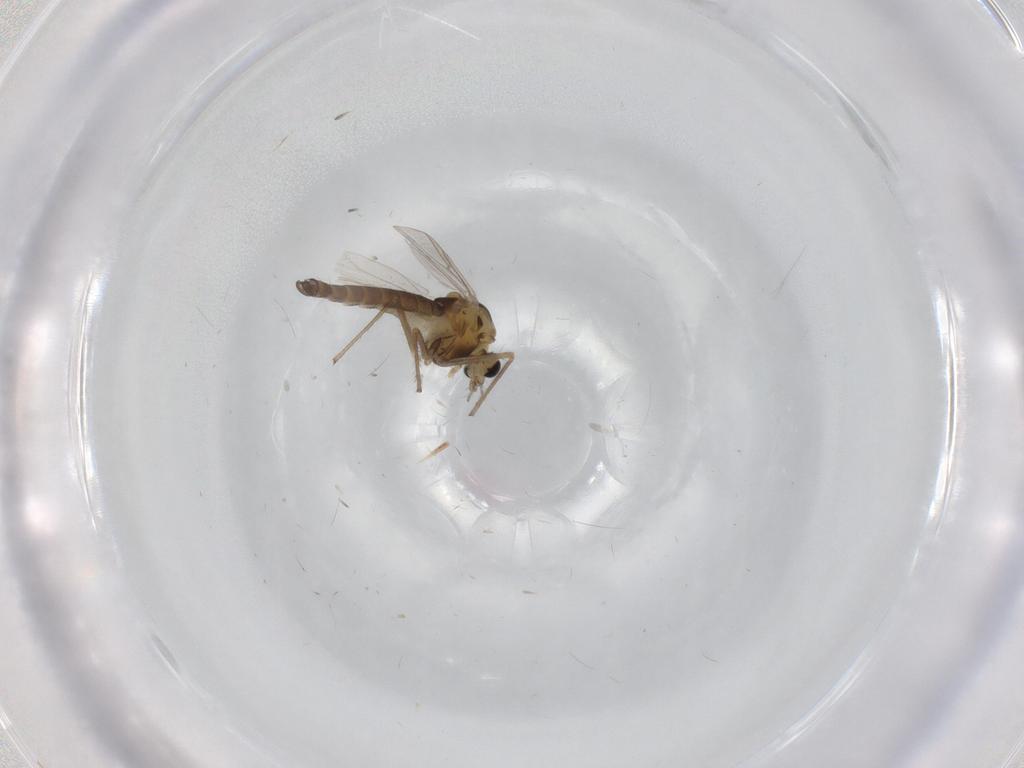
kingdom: Animalia
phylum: Arthropoda
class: Insecta
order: Diptera
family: Chironomidae
